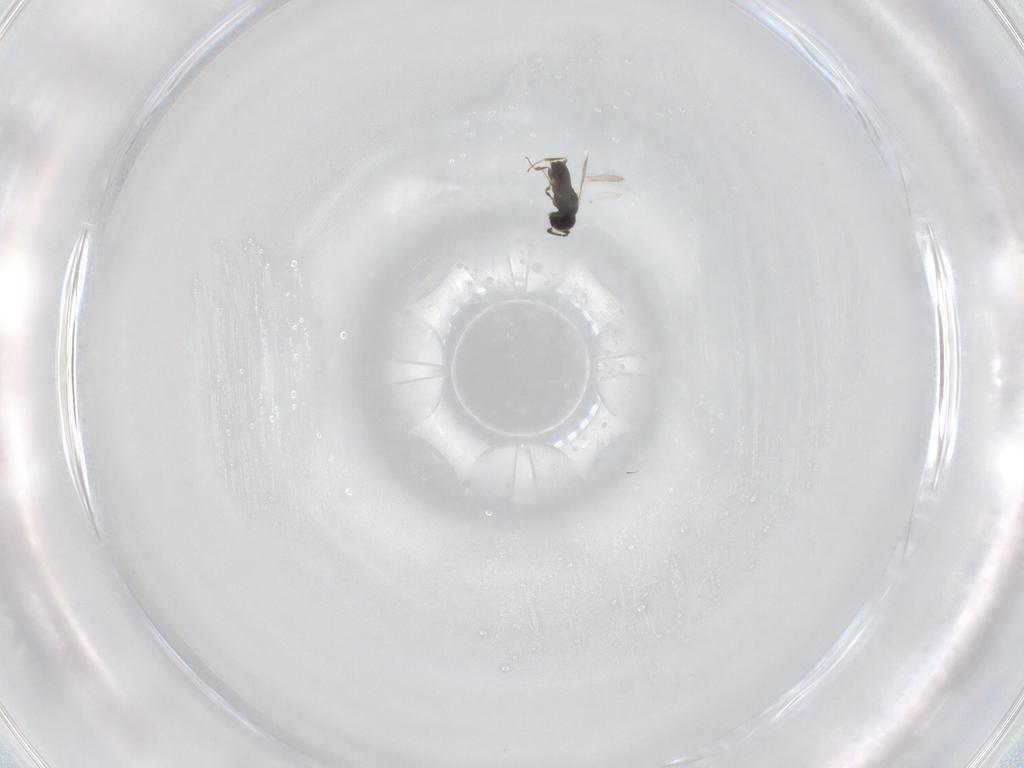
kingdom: Animalia
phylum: Arthropoda
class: Insecta
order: Hymenoptera
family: Scelionidae
